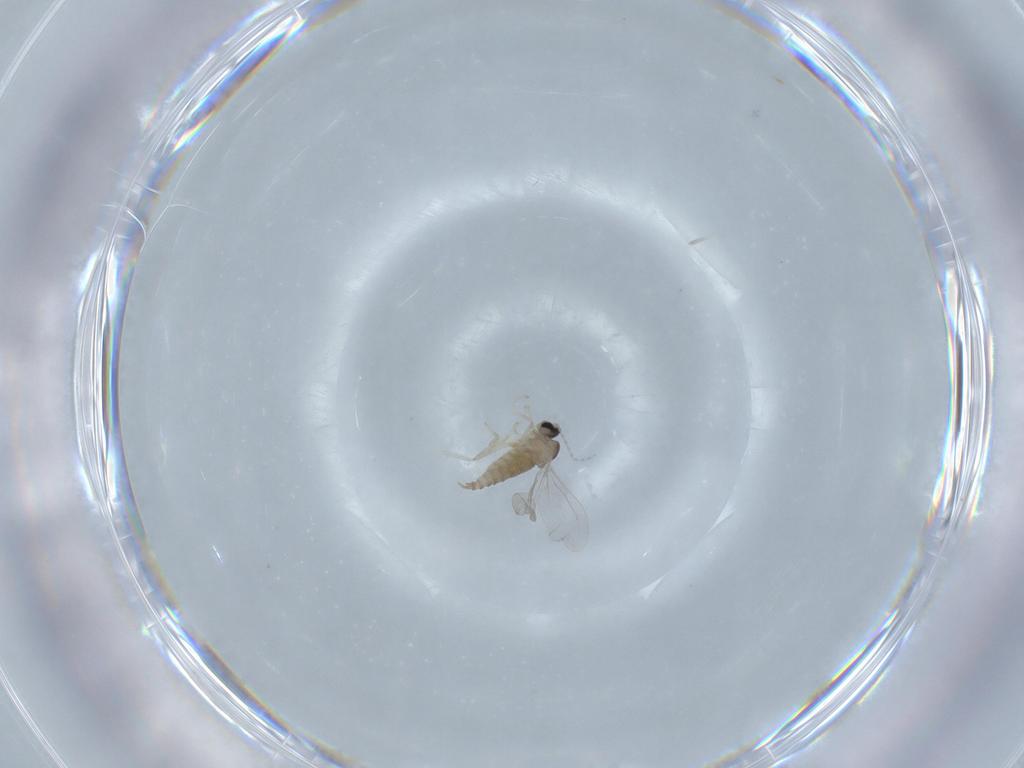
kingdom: Animalia
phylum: Arthropoda
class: Insecta
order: Diptera
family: Cecidomyiidae
